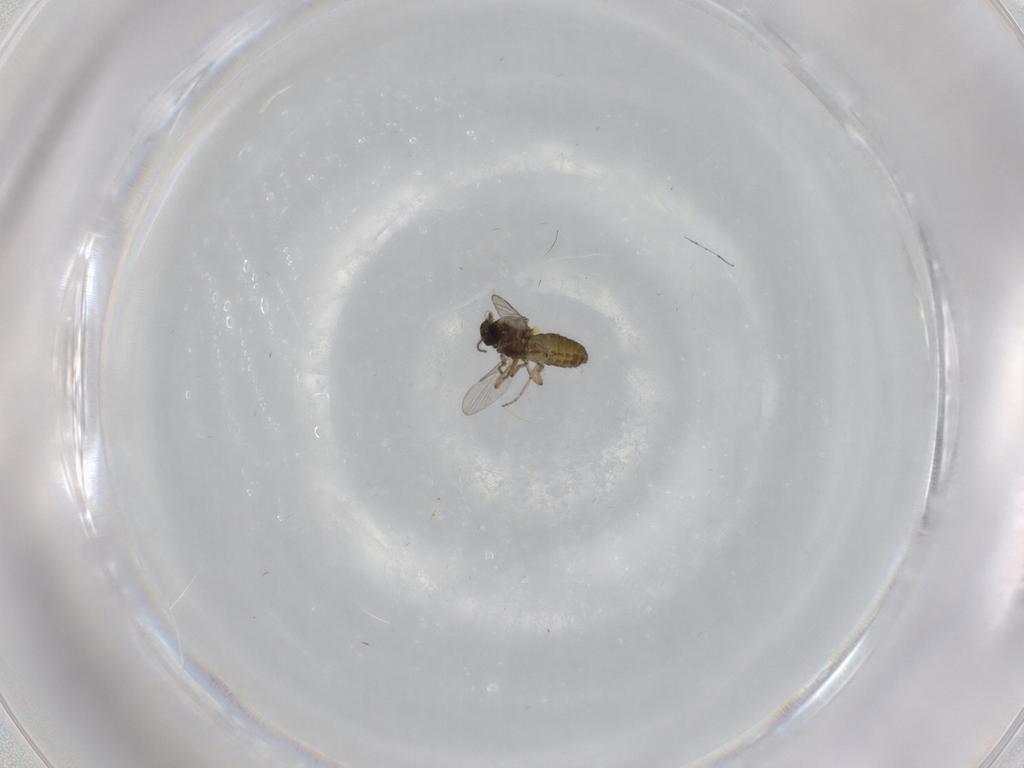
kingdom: Animalia
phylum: Arthropoda
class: Insecta
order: Diptera
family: Ceratopogonidae
